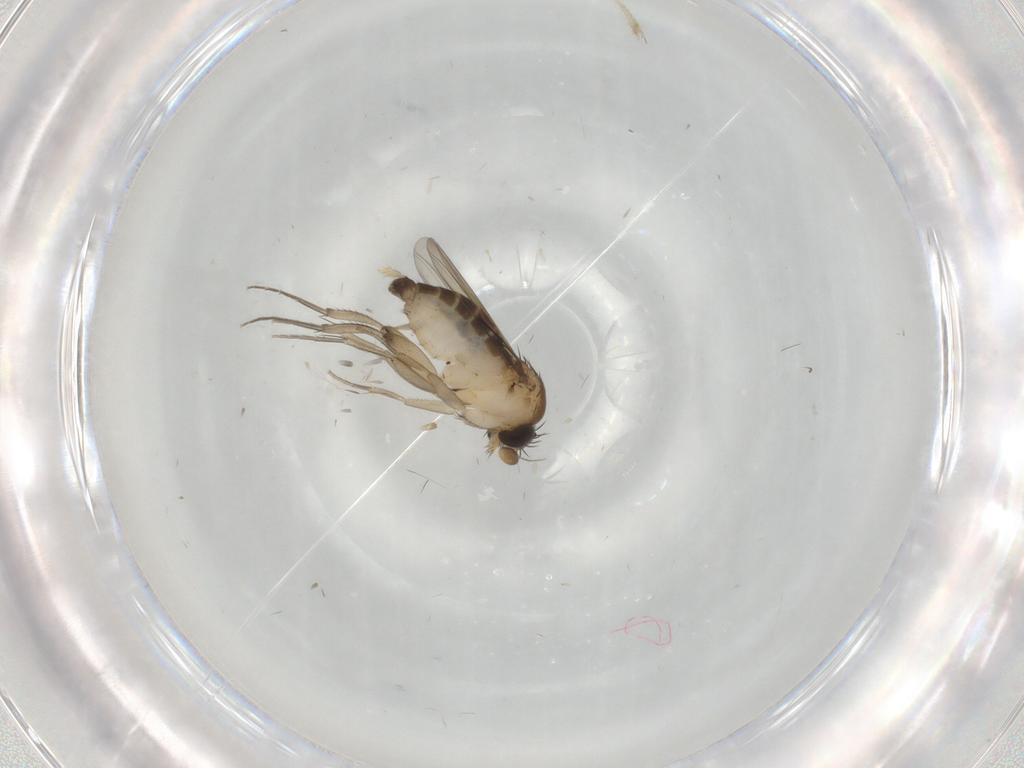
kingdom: Animalia
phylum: Arthropoda
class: Insecta
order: Diptera
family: Phoridae
